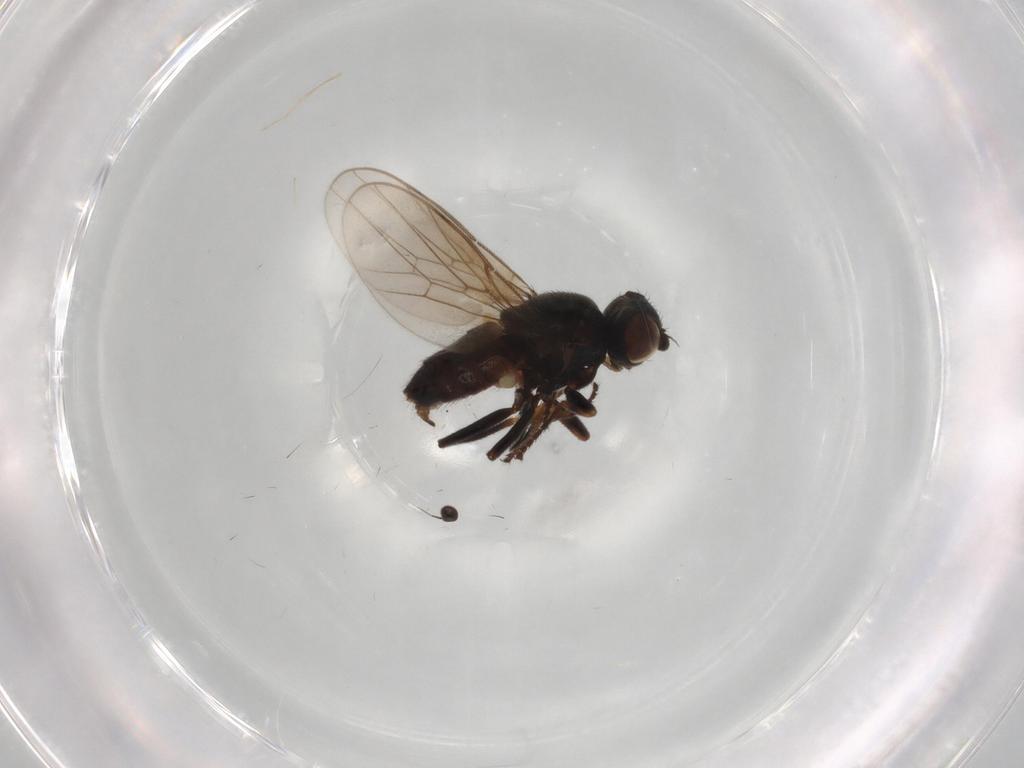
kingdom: Animalia
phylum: Arthropoda
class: Insecta
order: Diptera
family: Chloropidae
